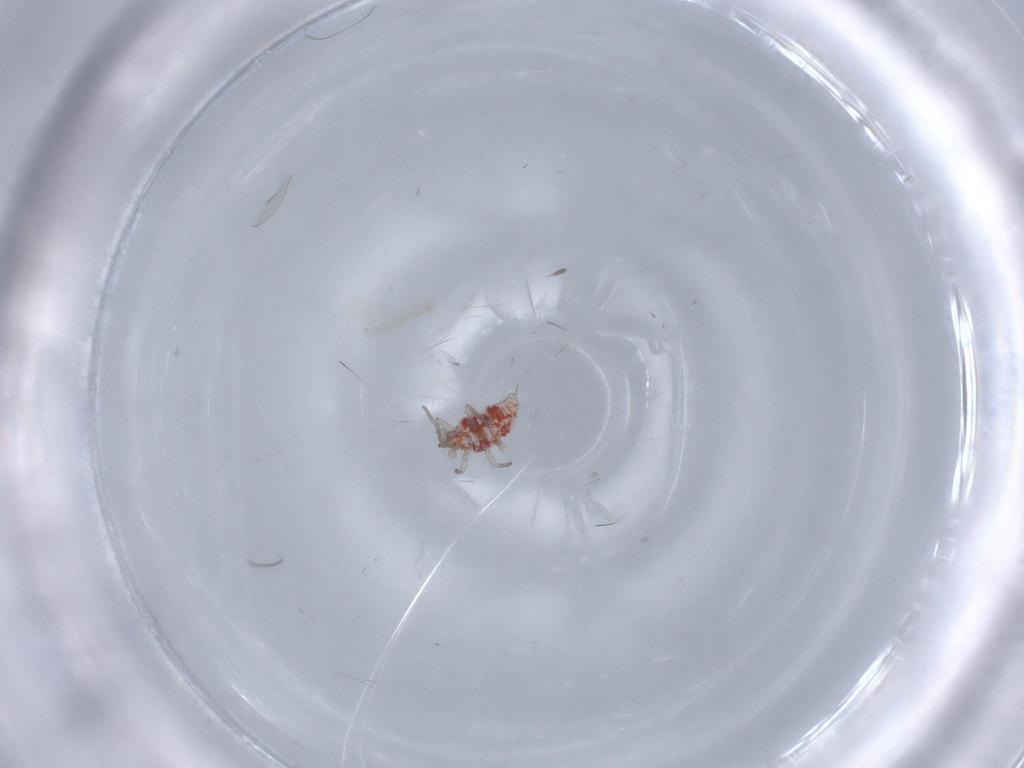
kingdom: Animalia
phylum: Arthropoda
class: Insecta
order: Neuroptera
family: Coniopterygidae
